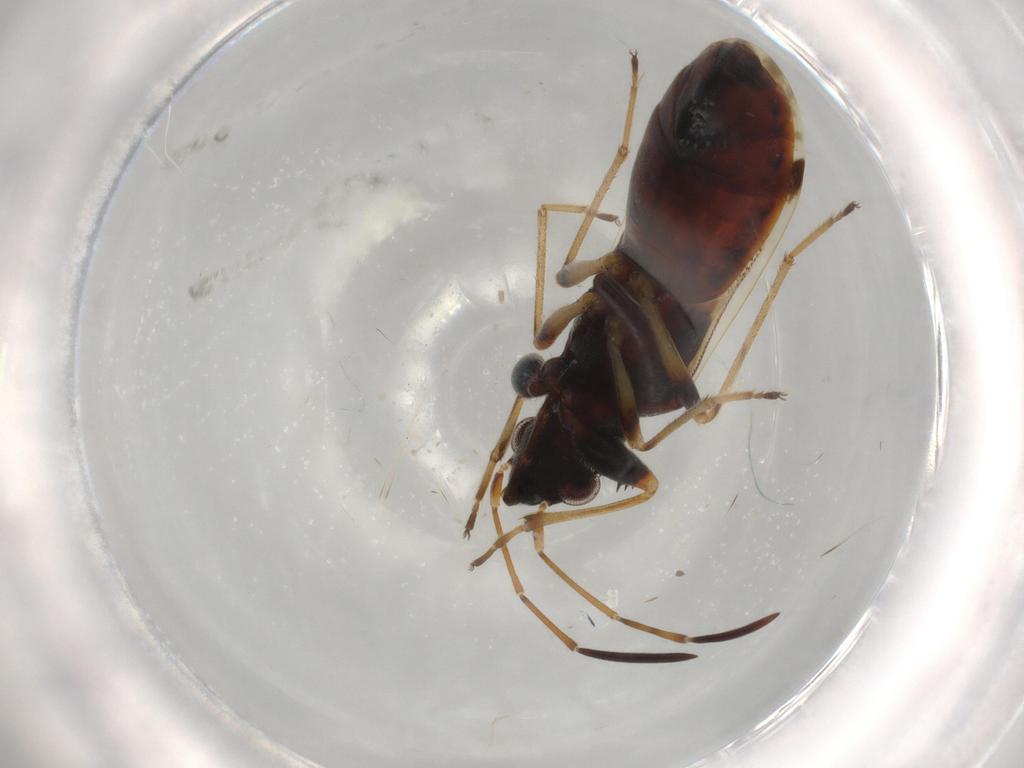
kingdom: Animalia
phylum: Arthropoda
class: Insecta
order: Hemiptera
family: Rhyparochromidae
